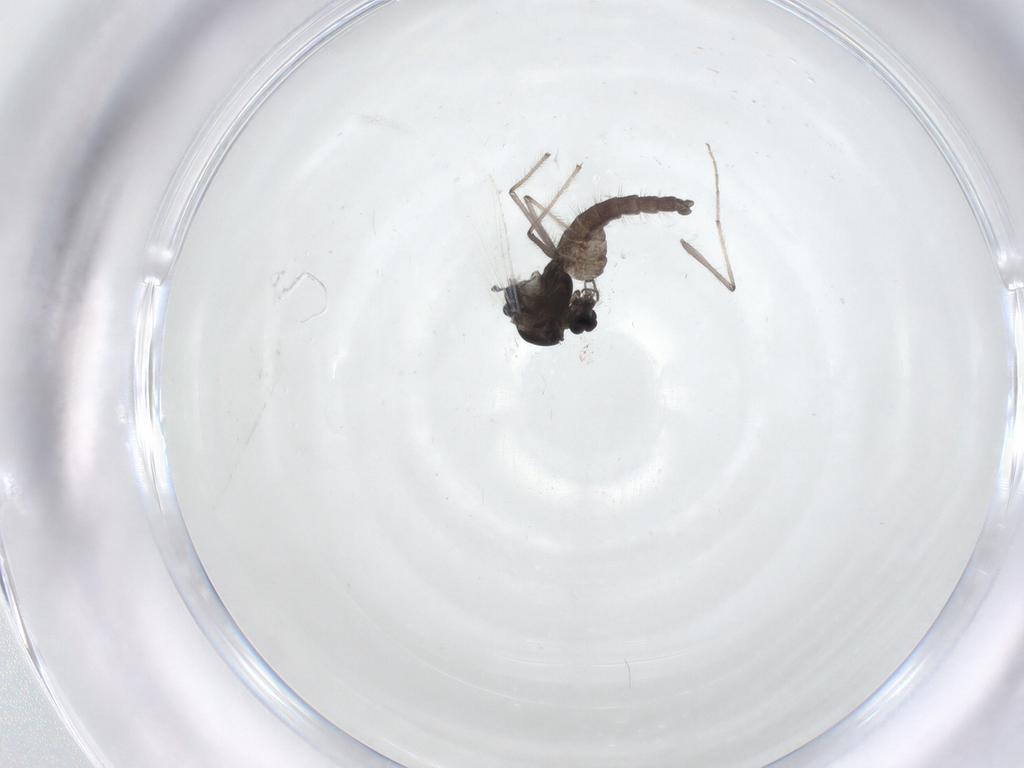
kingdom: Animalia
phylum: Arthropoda
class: Insecta
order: Diptera
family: Chironomidae
